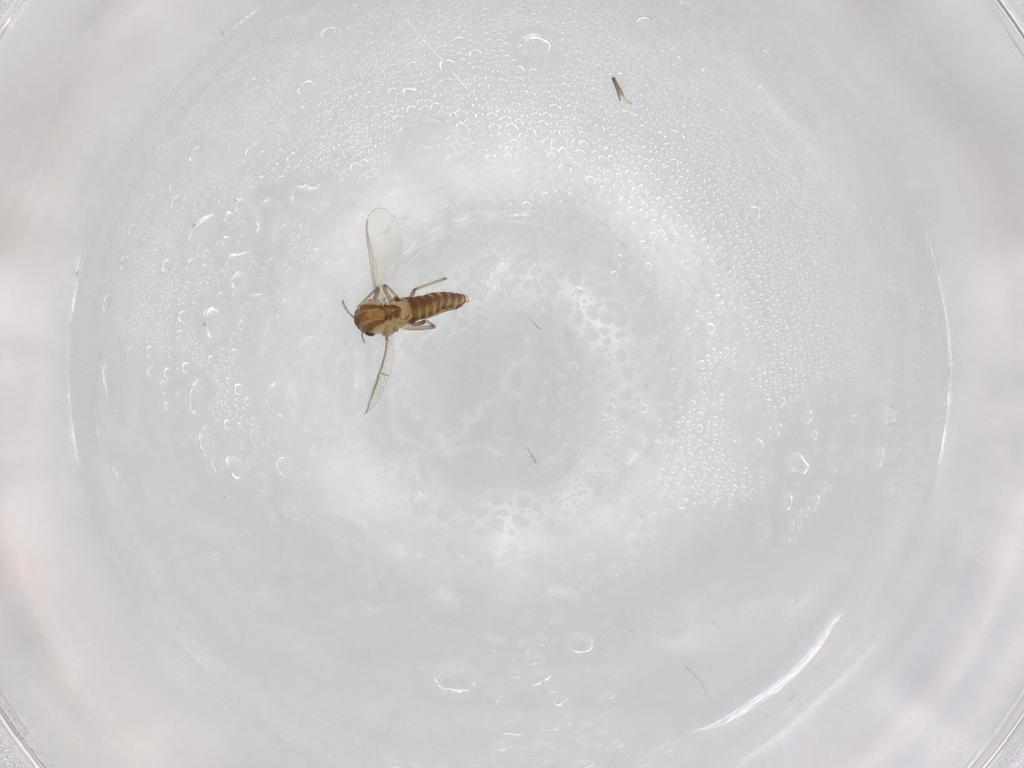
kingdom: Animalia
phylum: Arthropoda
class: Insecta
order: Diptera
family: Chironomidae
